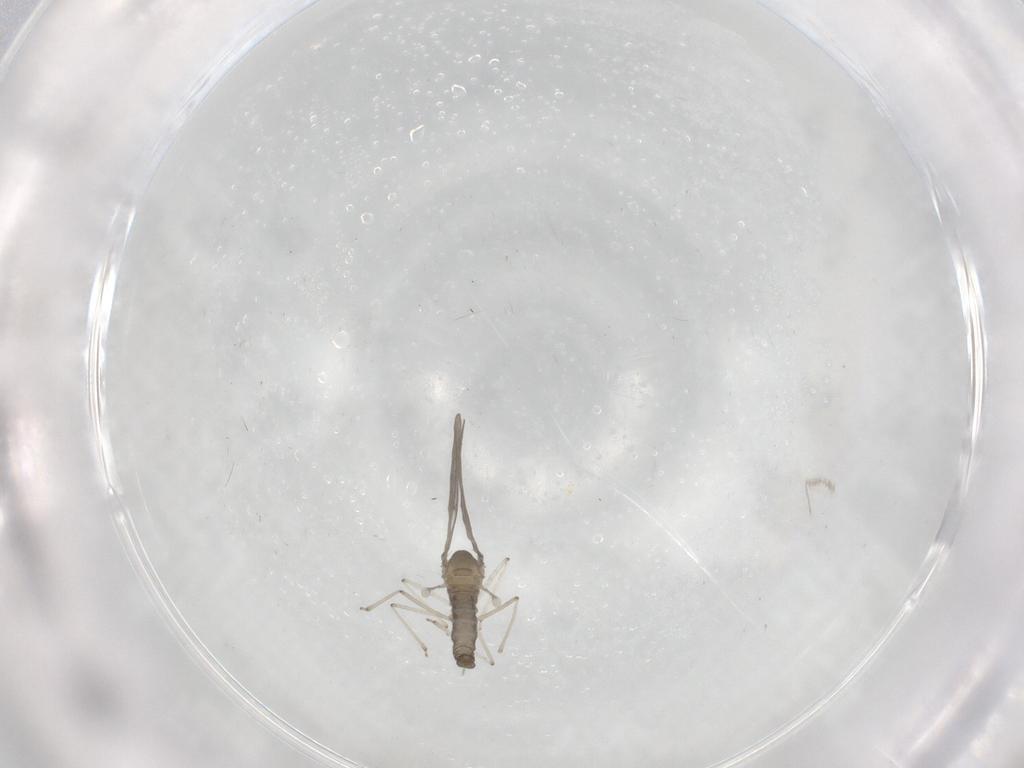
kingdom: Animalia
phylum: Arthropoda
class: Insecta
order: Diptera
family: Cecidomyiidae
